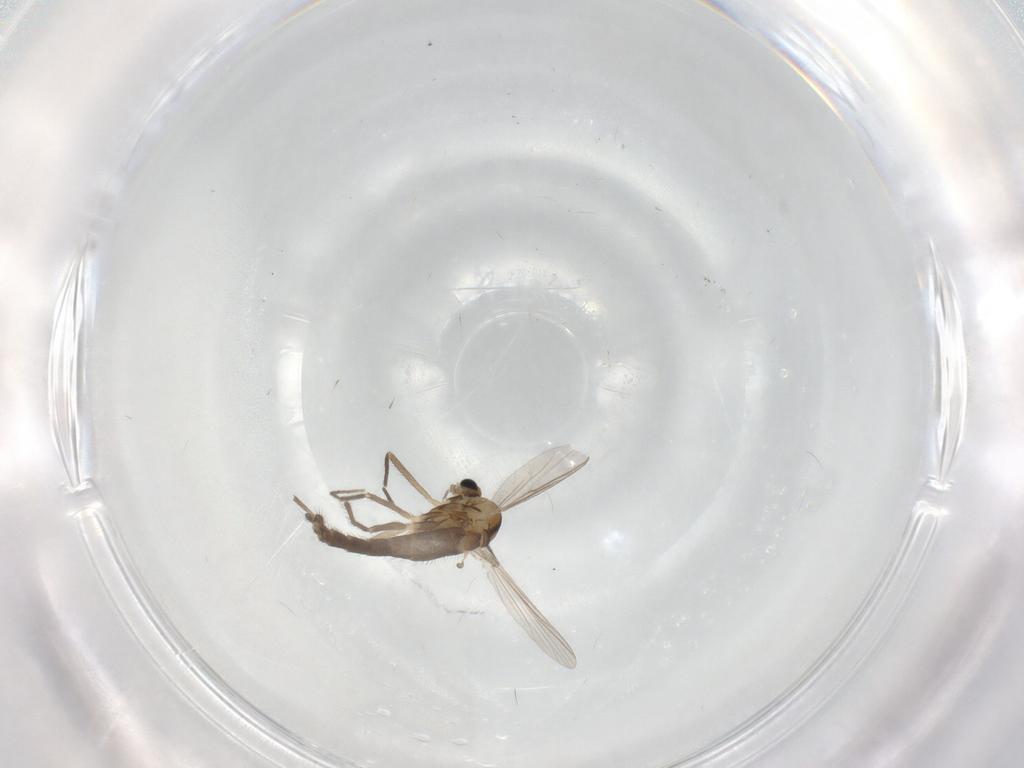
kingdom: Animalia
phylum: Arthropoda
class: Insecta
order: Diptera
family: Chironomidae
